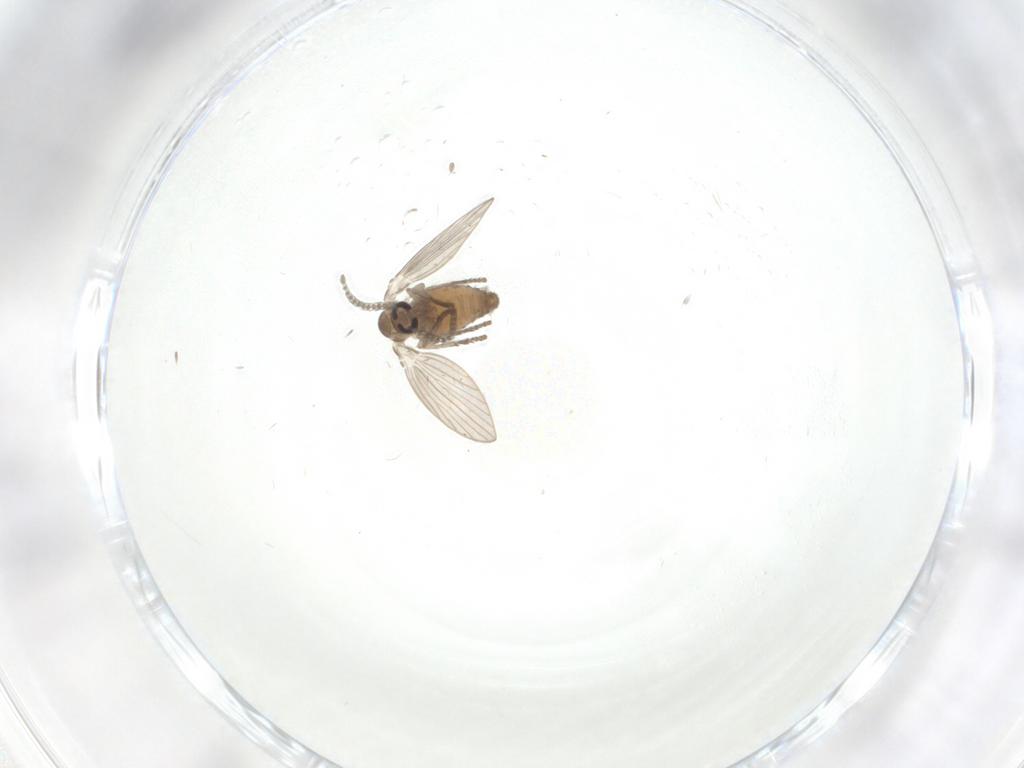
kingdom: Animalia
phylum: Arthropoda
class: Insecta
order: Diptera
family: Psychodidae
